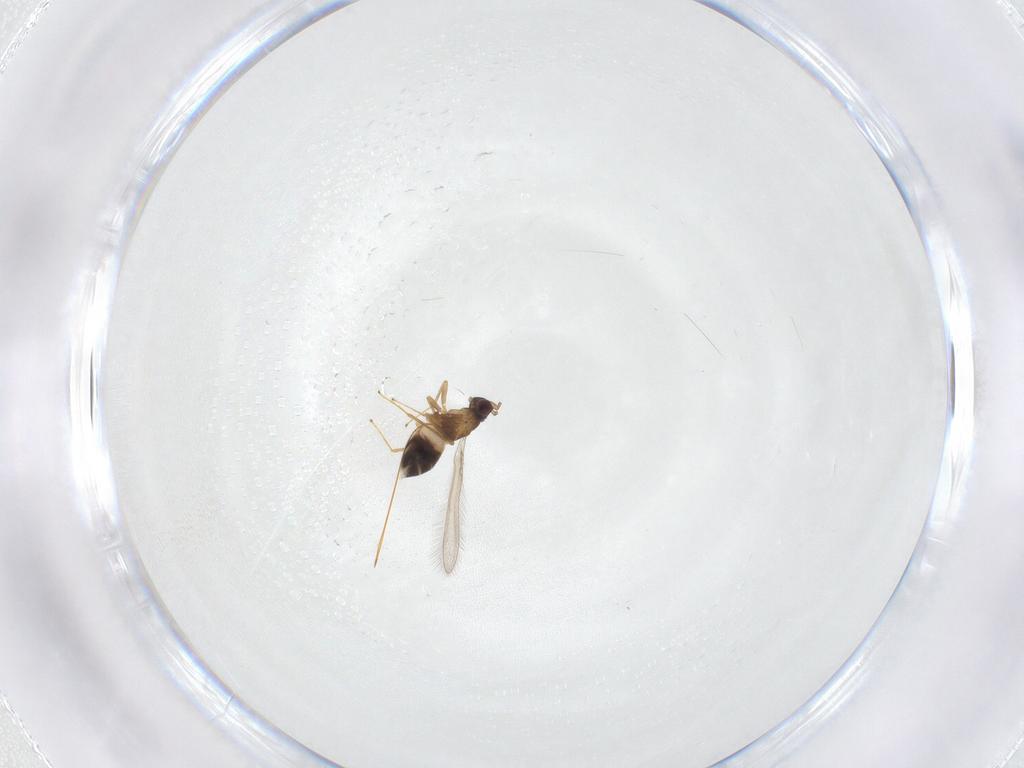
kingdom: Animalia
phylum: Arthropoda
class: Insecta
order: Hymenoptera
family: Mymaridae
